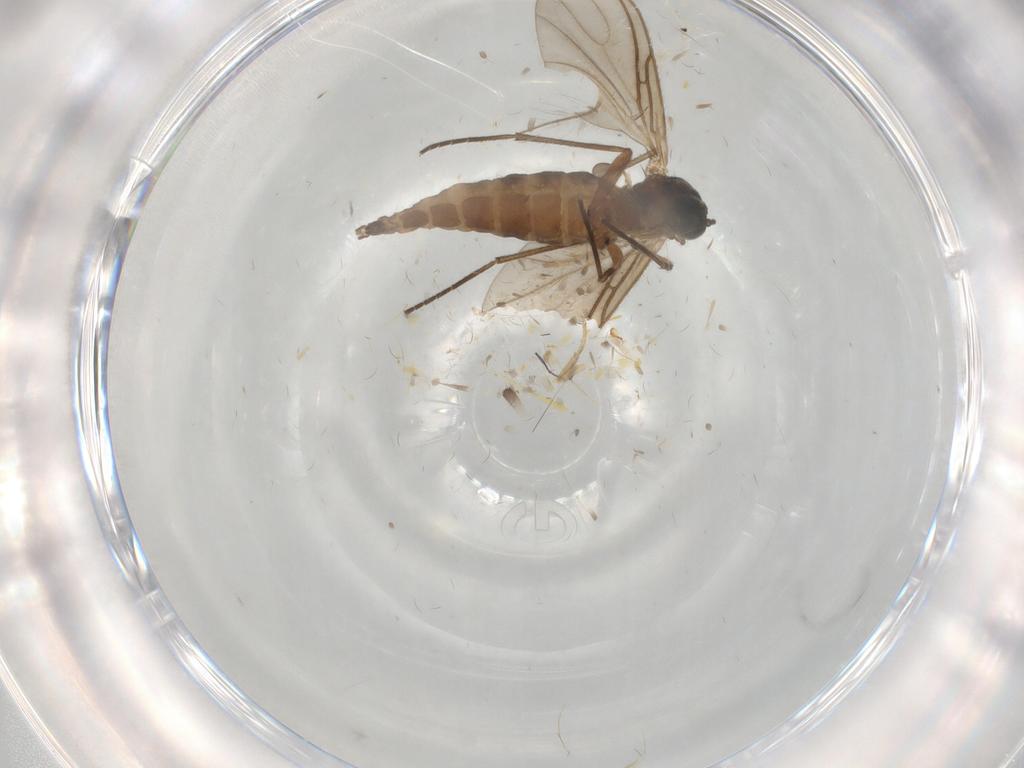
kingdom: Animalia
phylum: Arthropoda
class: Insecta
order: Diptera
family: Sciaridae
